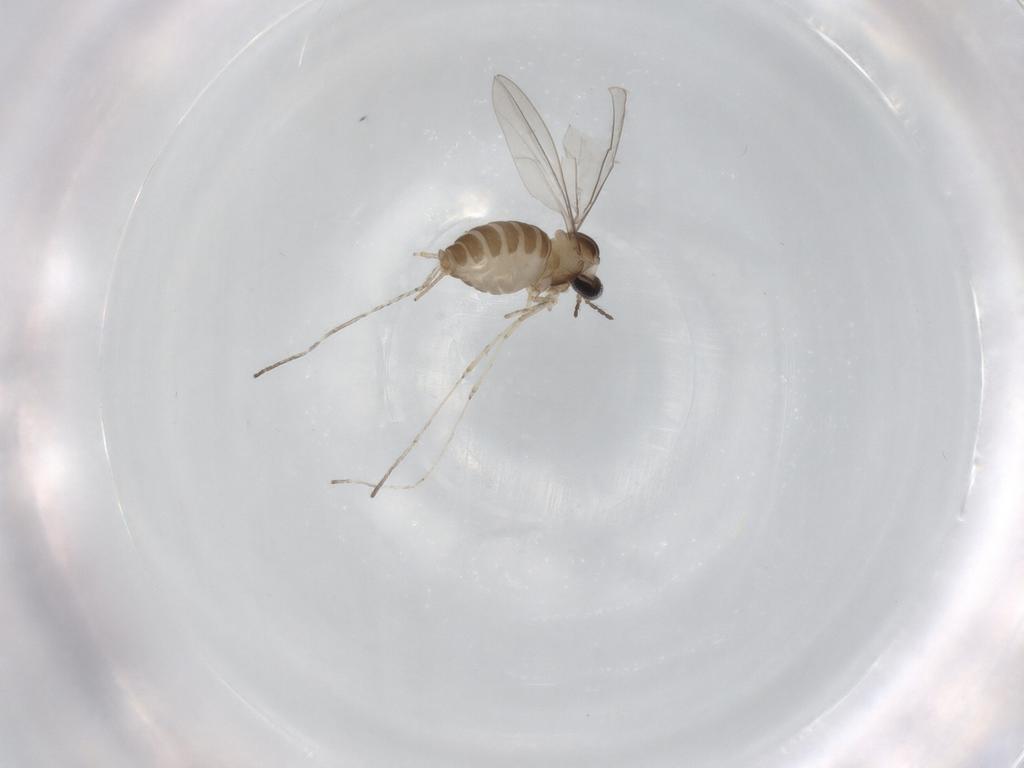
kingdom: Animalia
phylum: Arthropoda
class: Insecta
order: Diptera
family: Cecidomyiidae
